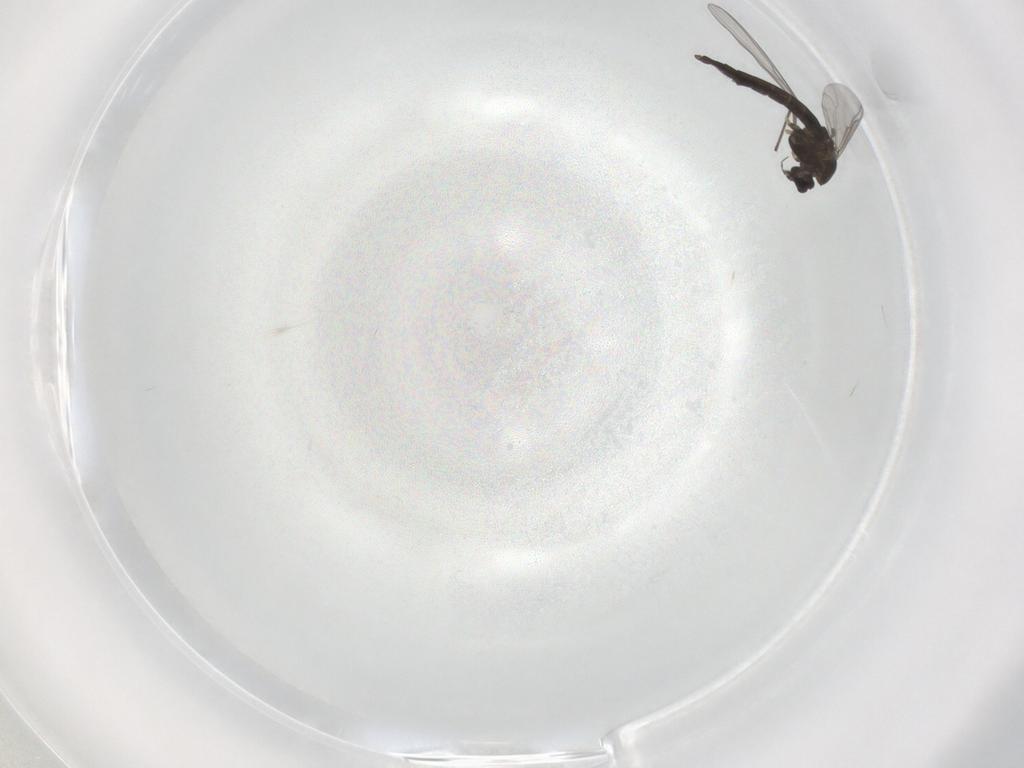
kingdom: Animalia
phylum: Arthropoda
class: Insecta
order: Diptera
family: Chironomidae
